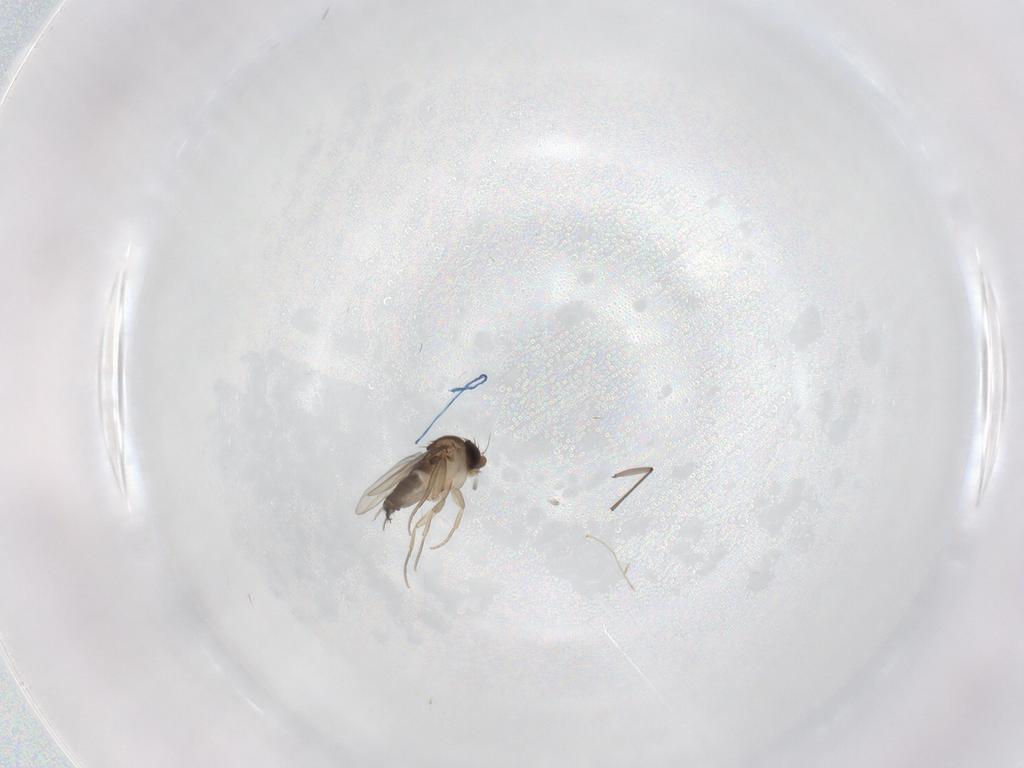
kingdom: Animalia
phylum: Arthropoda
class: Insecta
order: Diptera
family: Phoridae
